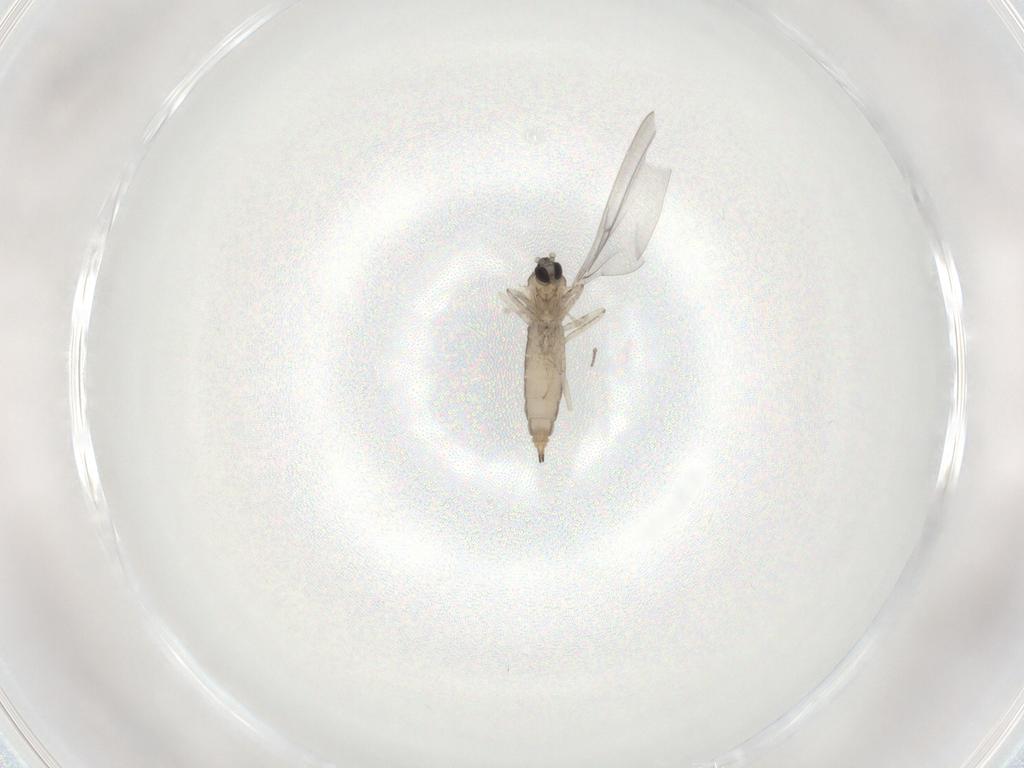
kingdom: Animalia
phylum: Arthropoda
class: Insecta
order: Diptera
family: Cecidomyiidae
